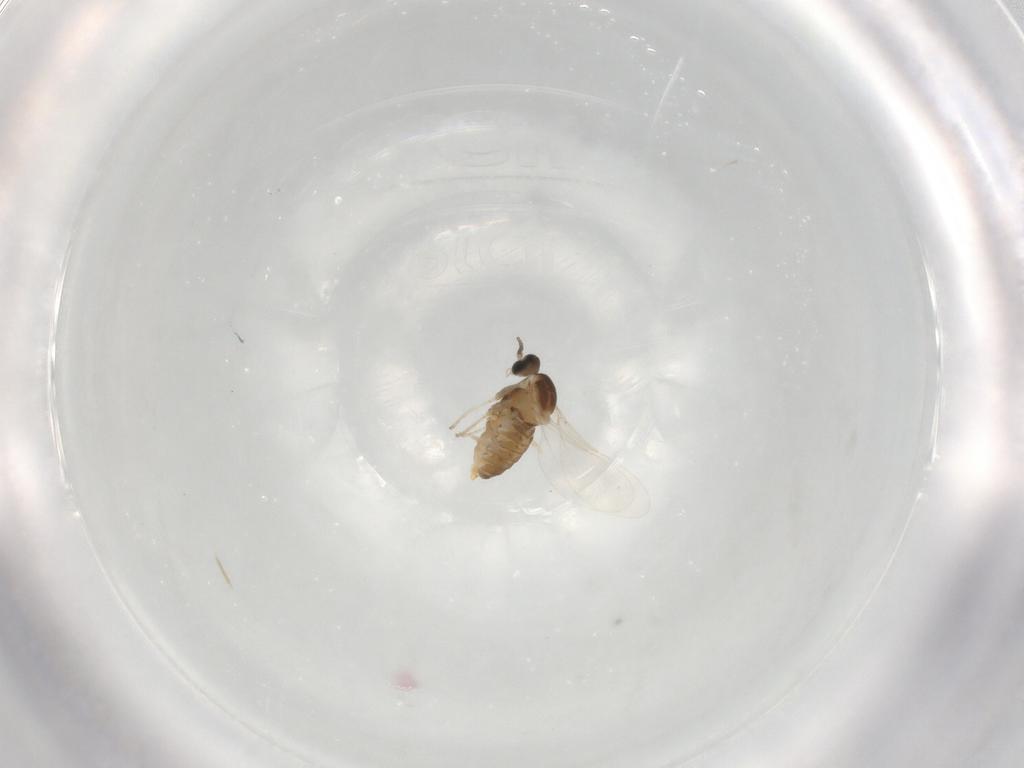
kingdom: Animalia
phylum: Arthropoda
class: Insecta
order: Diptera
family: Cecidomyiidae
